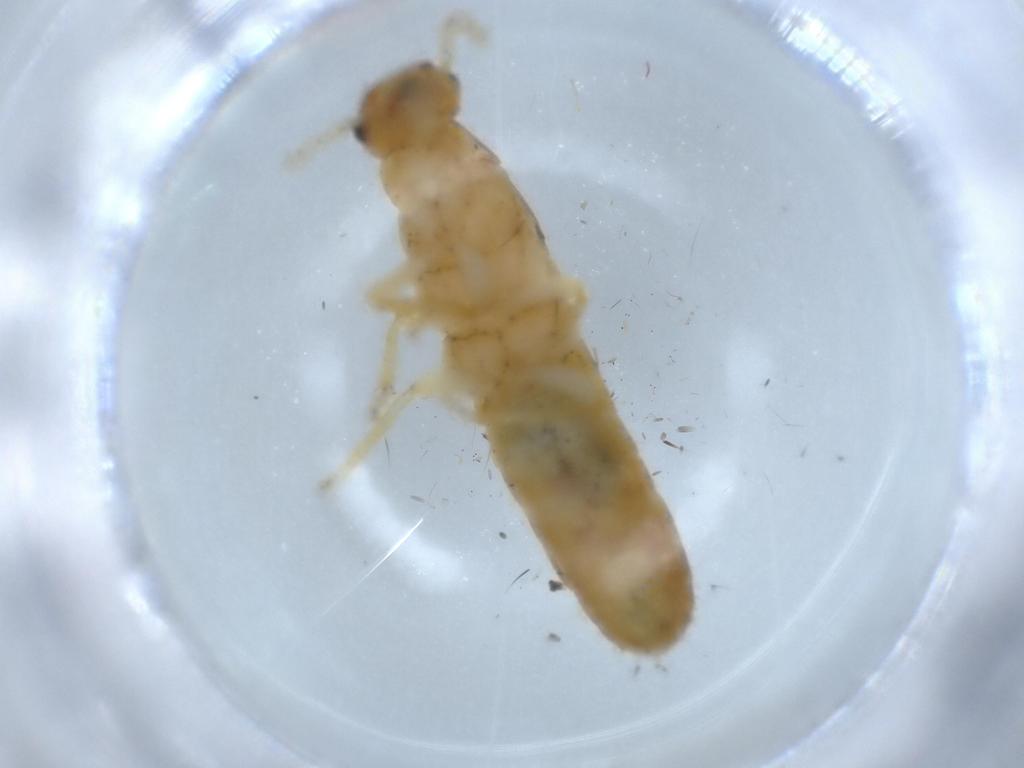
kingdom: Animalia
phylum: Arthropoda
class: Insecta
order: Blattodea
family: Kalotermitidae
